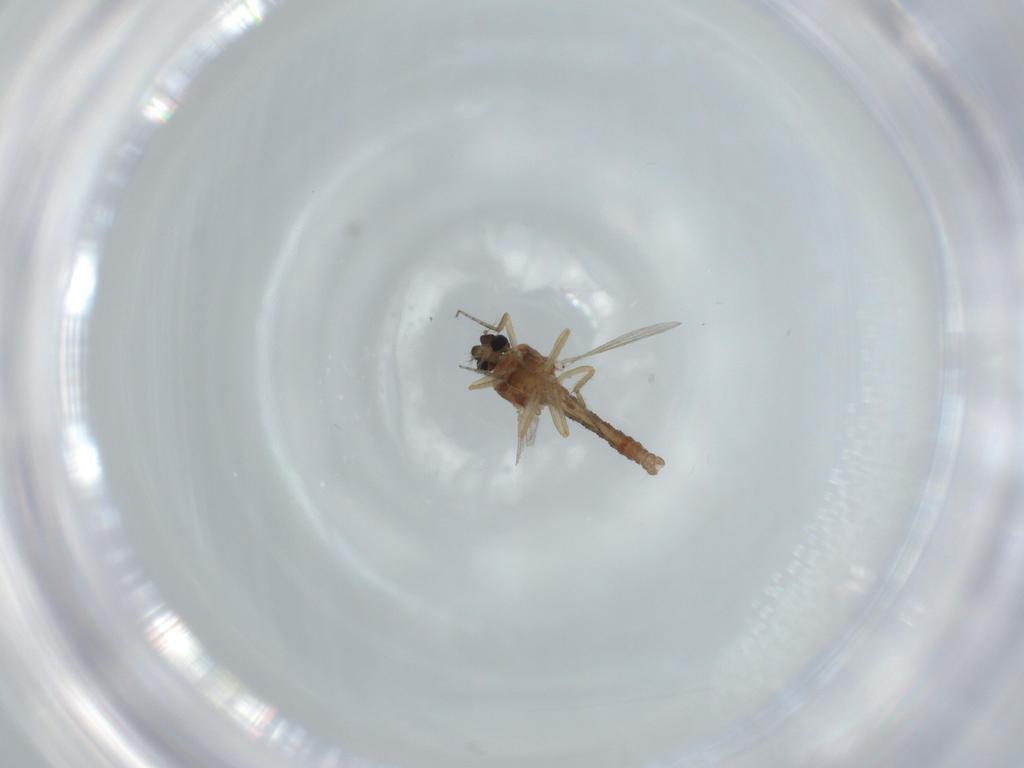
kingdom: Animalia
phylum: Arthropoda
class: Insecta
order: Diptera
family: Ceratopogonidae
